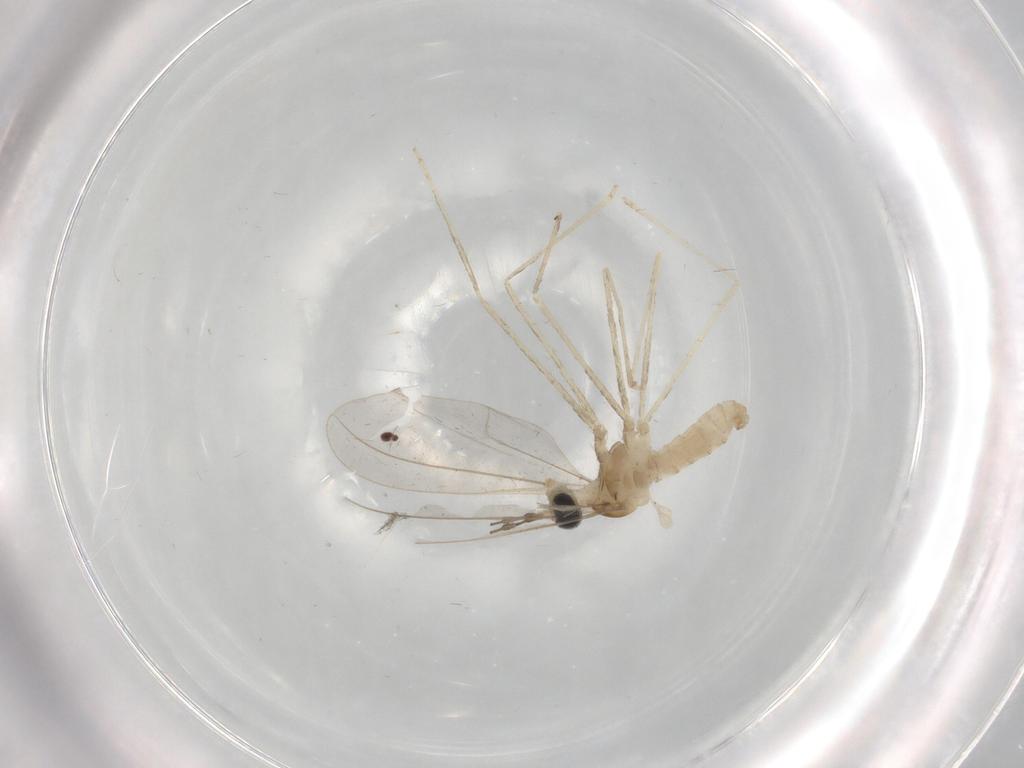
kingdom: Animalia
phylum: Arthropoda
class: Insecta
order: Diptera
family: Cecidomyiidae
